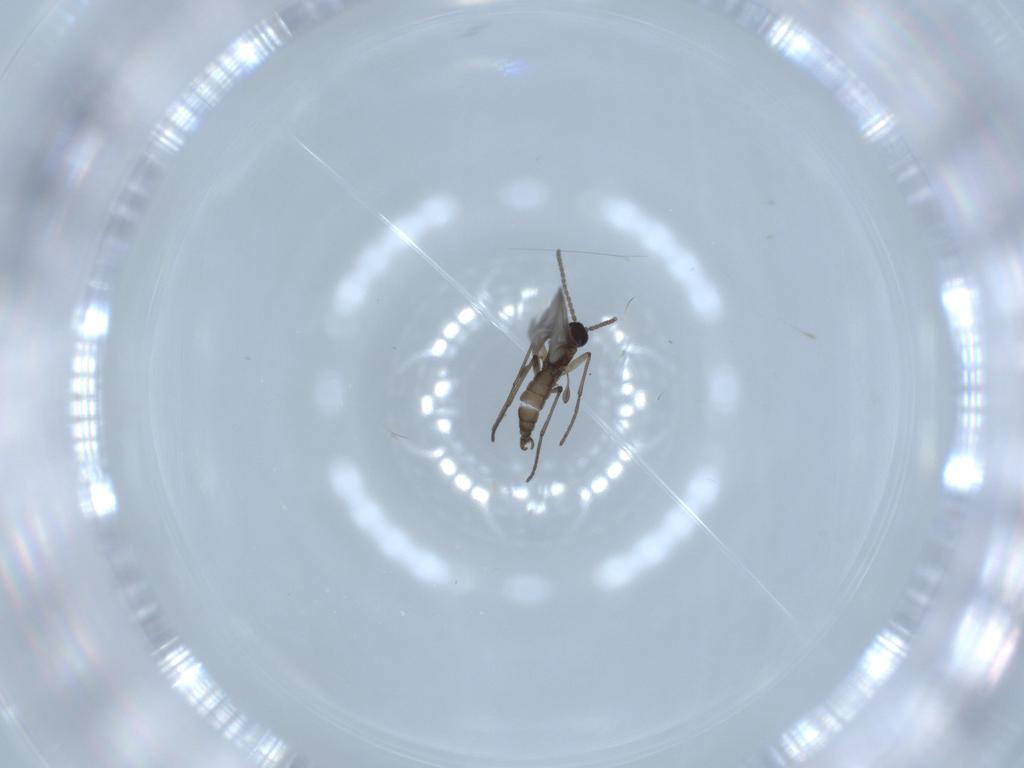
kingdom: Animalia
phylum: Arthropoda
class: Insecta
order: Diptera
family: Sciaridae
